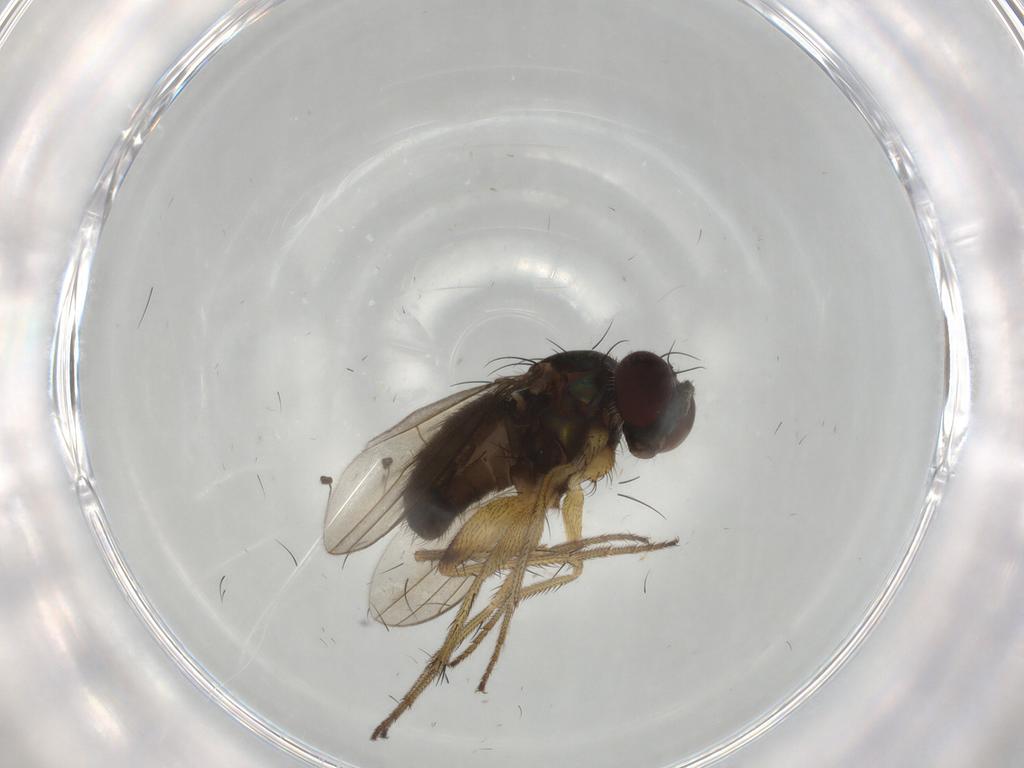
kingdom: Animalia
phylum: Arthropoda
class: Insecta
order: Diptera
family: Dolichopodidae
